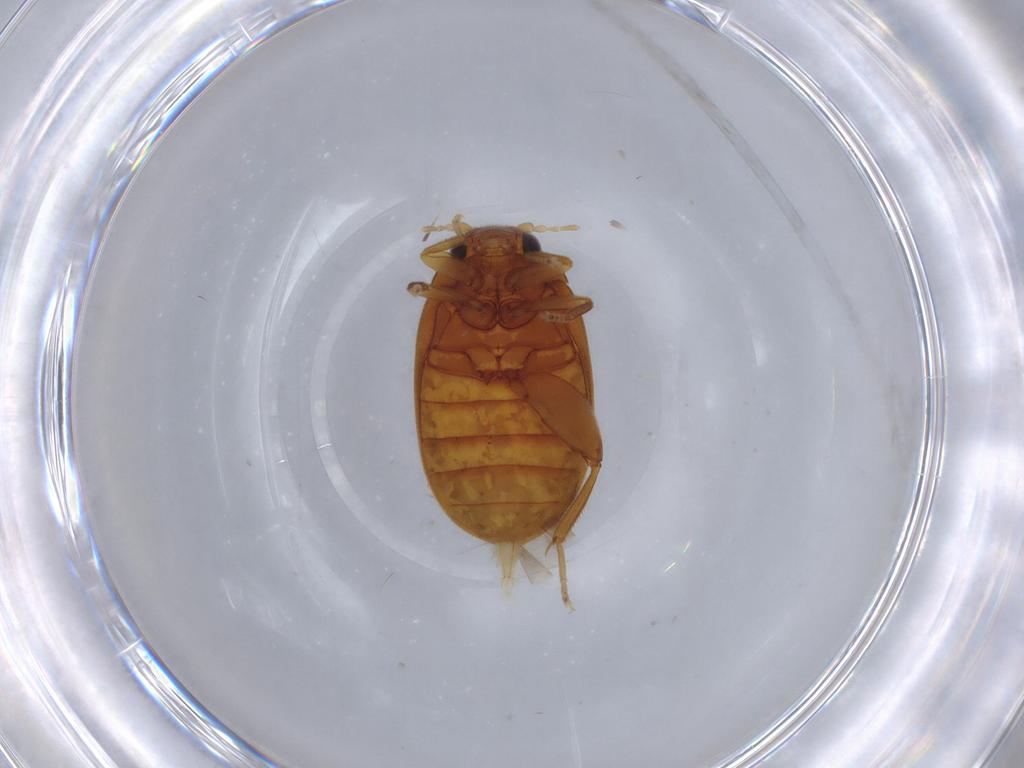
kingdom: Animalia
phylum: Arthropoda
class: Insecta
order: Coleoptera
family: Scirtidae
